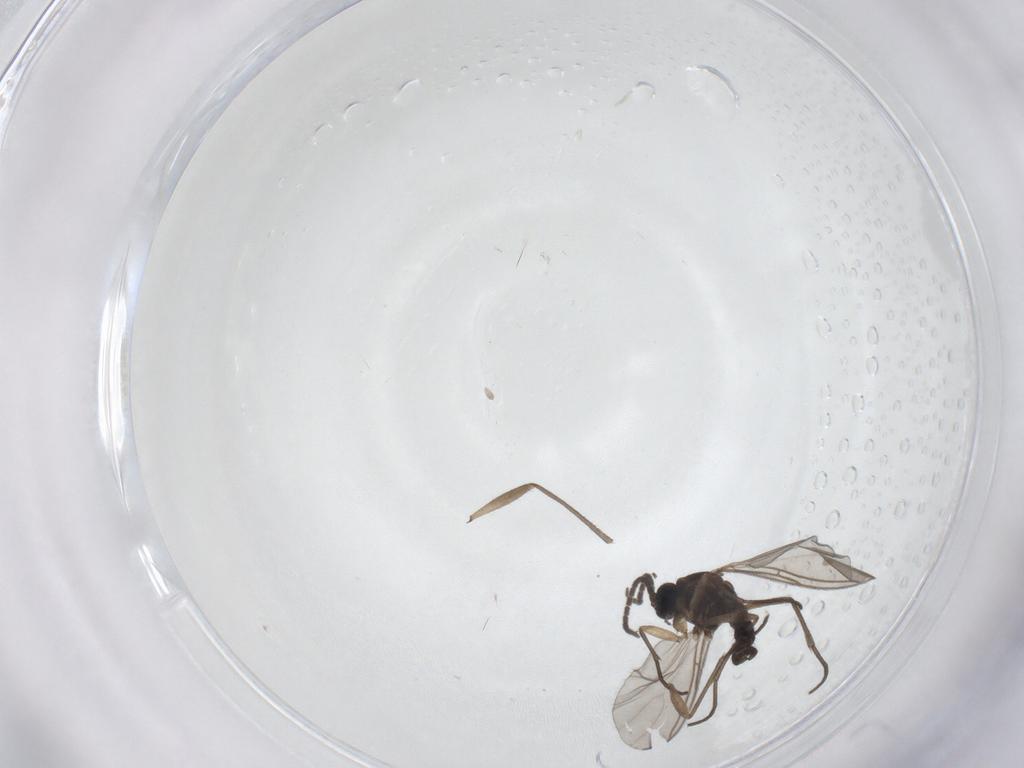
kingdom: Animalia
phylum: Arthropoda
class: Insecta
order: Diptera
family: Sciaridae
